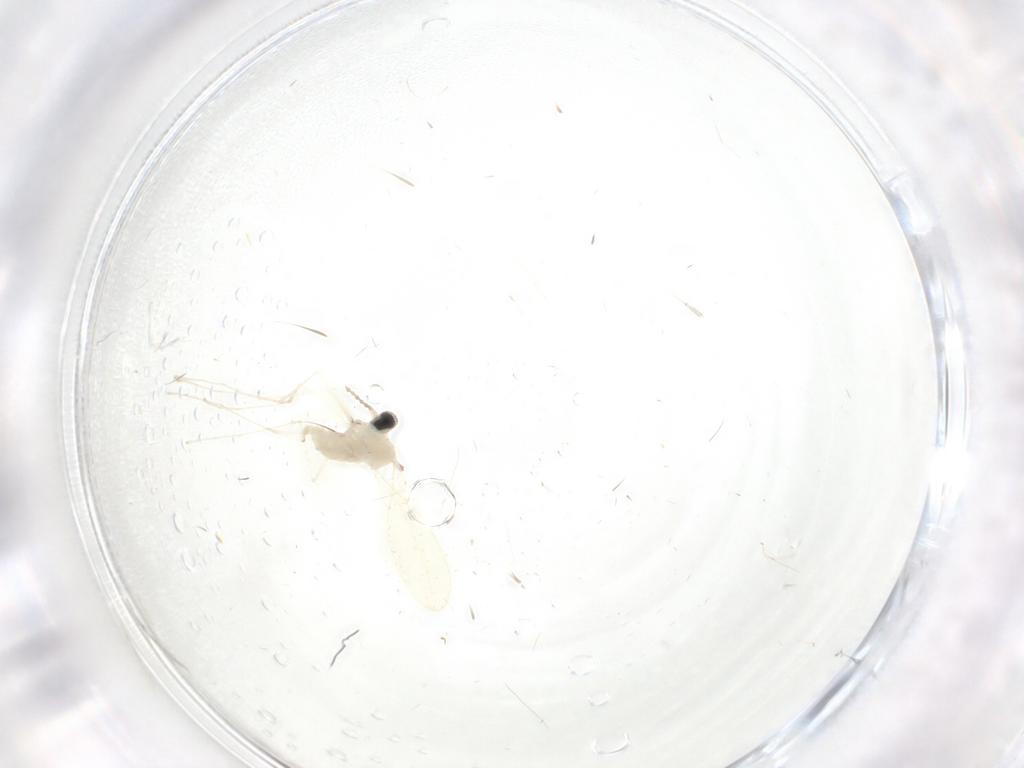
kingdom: Animalia
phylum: Arthropoda
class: Insecta
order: Diptera
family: Cecidomyiidae
